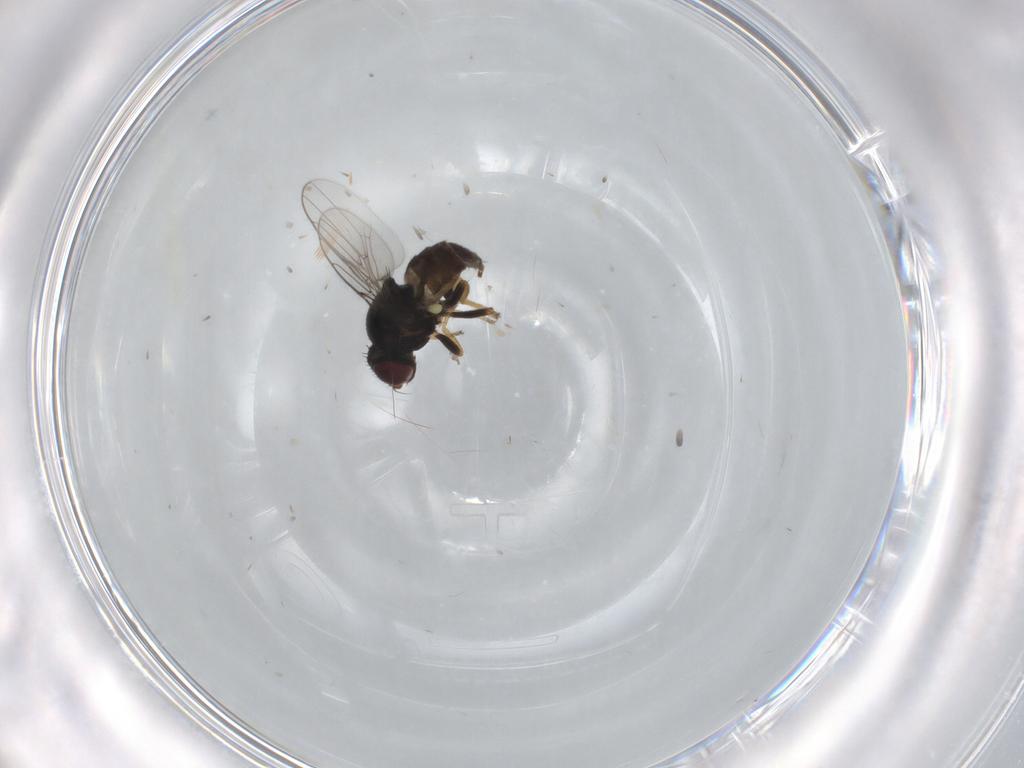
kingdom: Animalia
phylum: Arthropoda
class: Insecta
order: Diptera
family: Chloropidae
